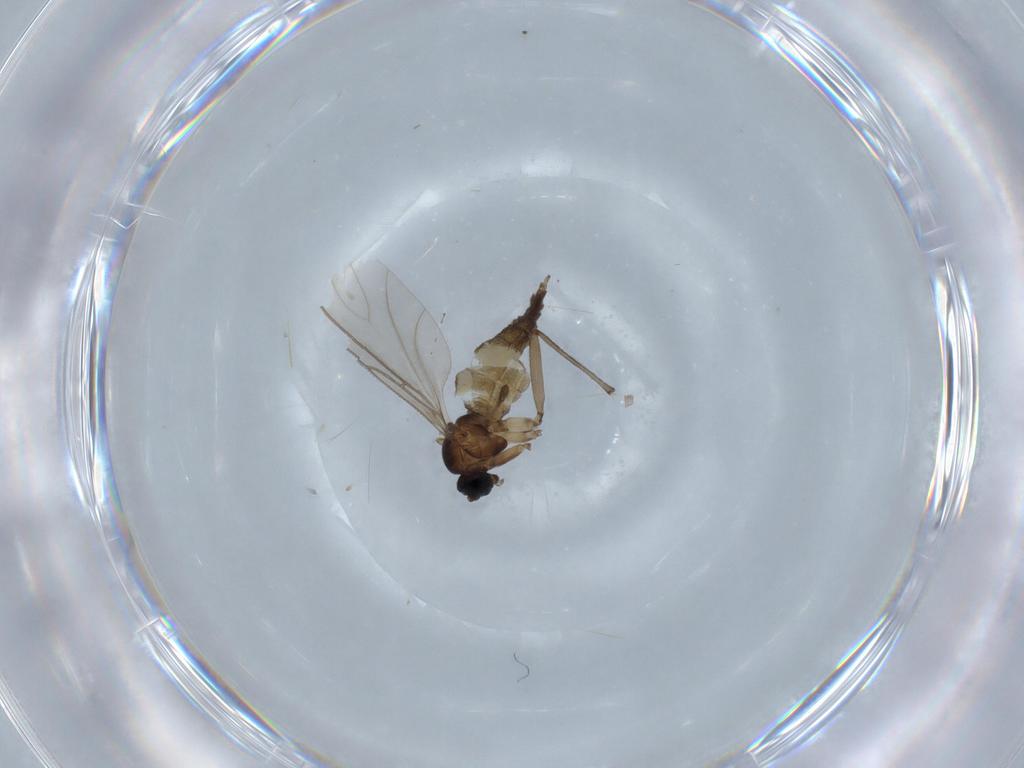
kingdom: Animalia
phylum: Arthropoda
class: Insecta
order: Diptera
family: Sciaridae
